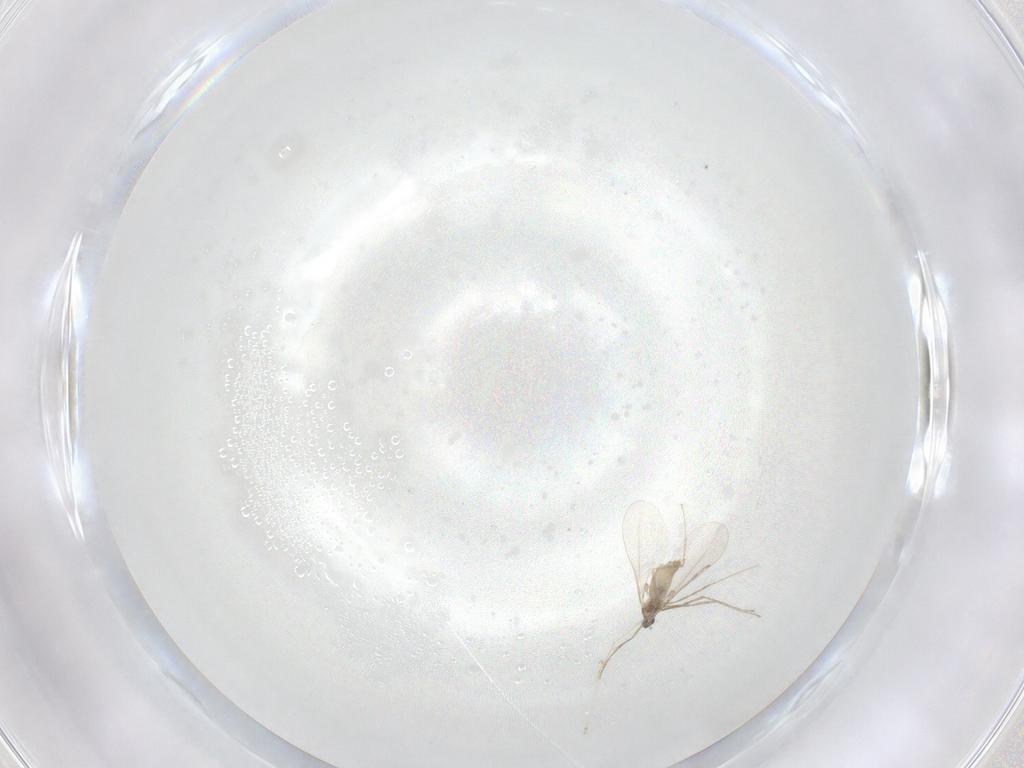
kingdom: Animalia
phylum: Arthropoda
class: Insecta
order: Diptera
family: Cecidomyiidae
